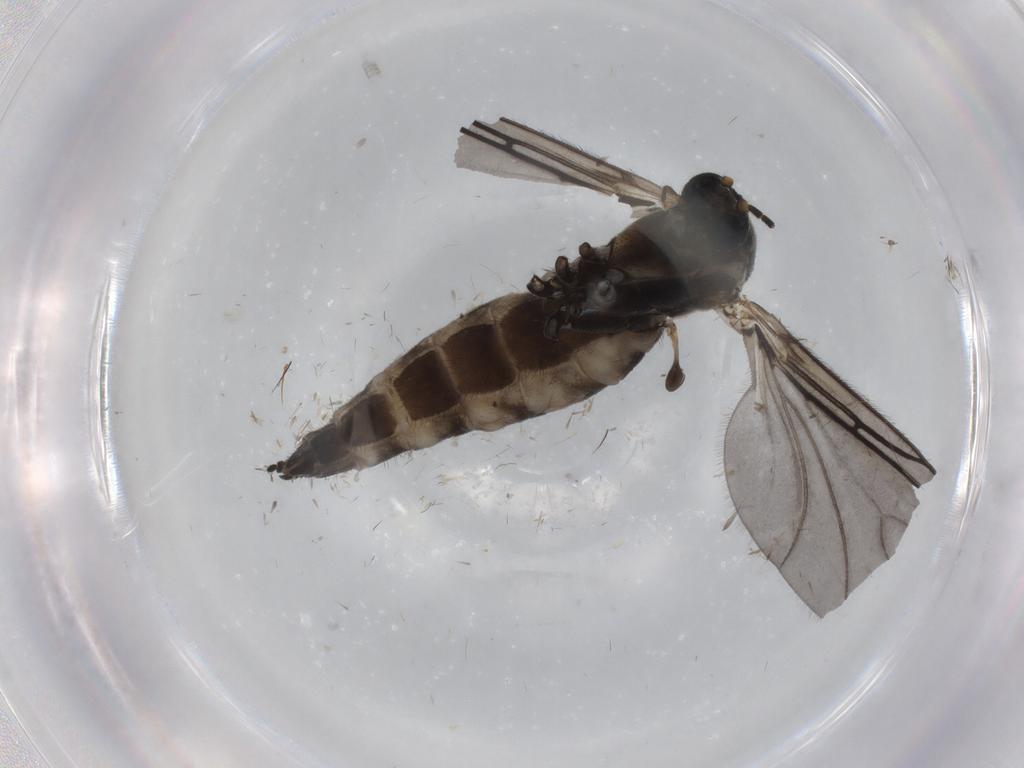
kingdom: Animalia
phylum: Arthropoda
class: Insecta
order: Diptera
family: Sciaridae
